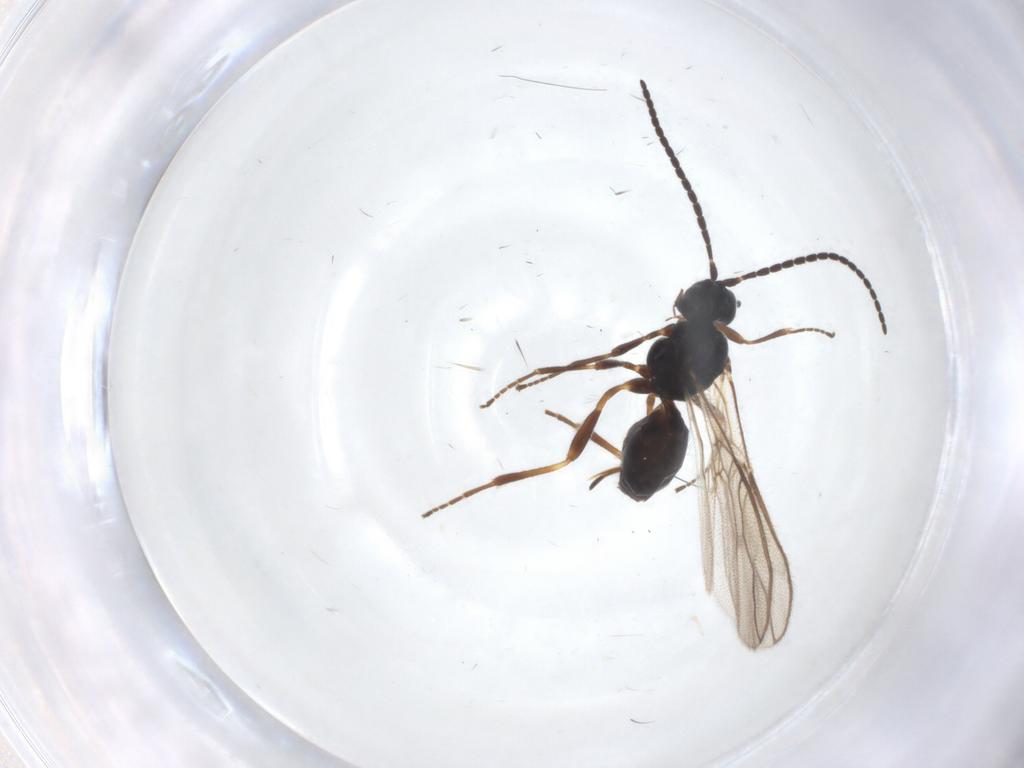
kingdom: Animalia
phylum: Arthropoda
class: Insecta
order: Hymenoptera
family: Braconidae
